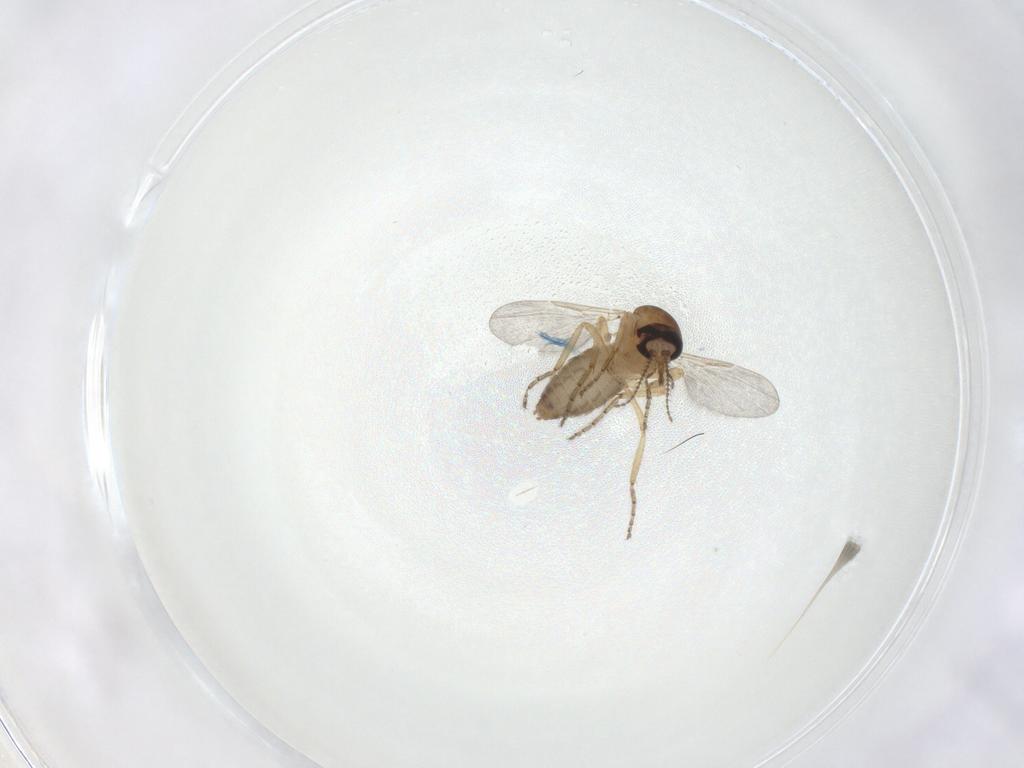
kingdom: Animalia
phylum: Arthropoda
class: Insecta
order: Diptera
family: Ceratopogonidae
